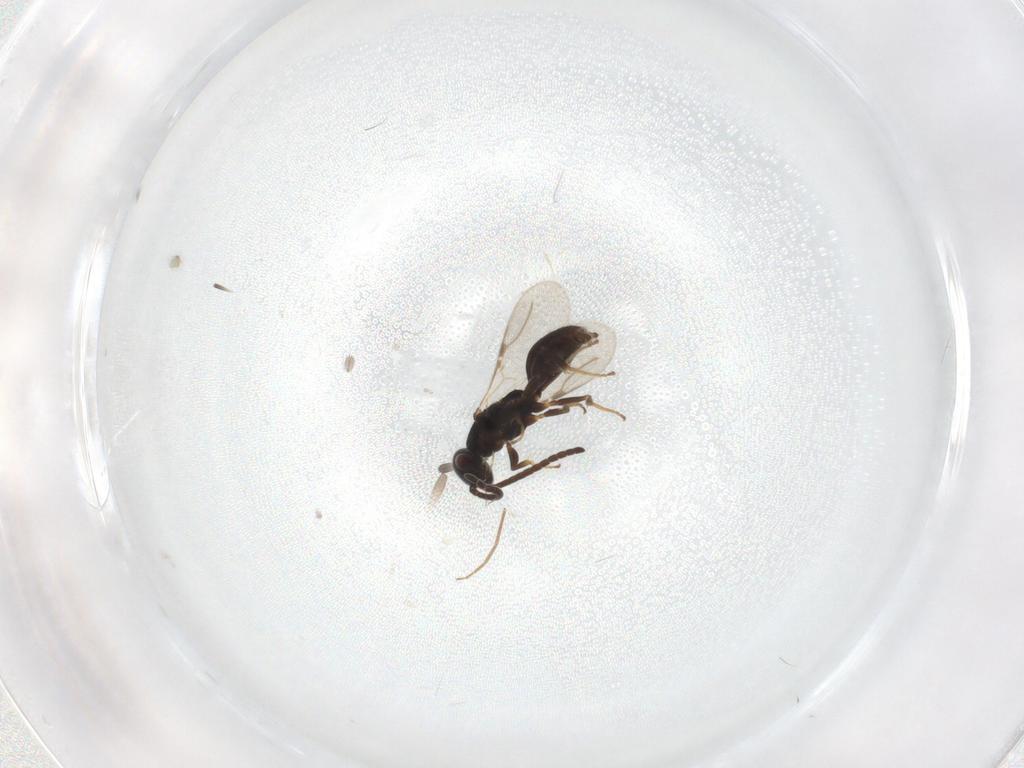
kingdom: Animalia
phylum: Arthropoda
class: Insecta
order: Hymenoptera
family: Bethylidae
